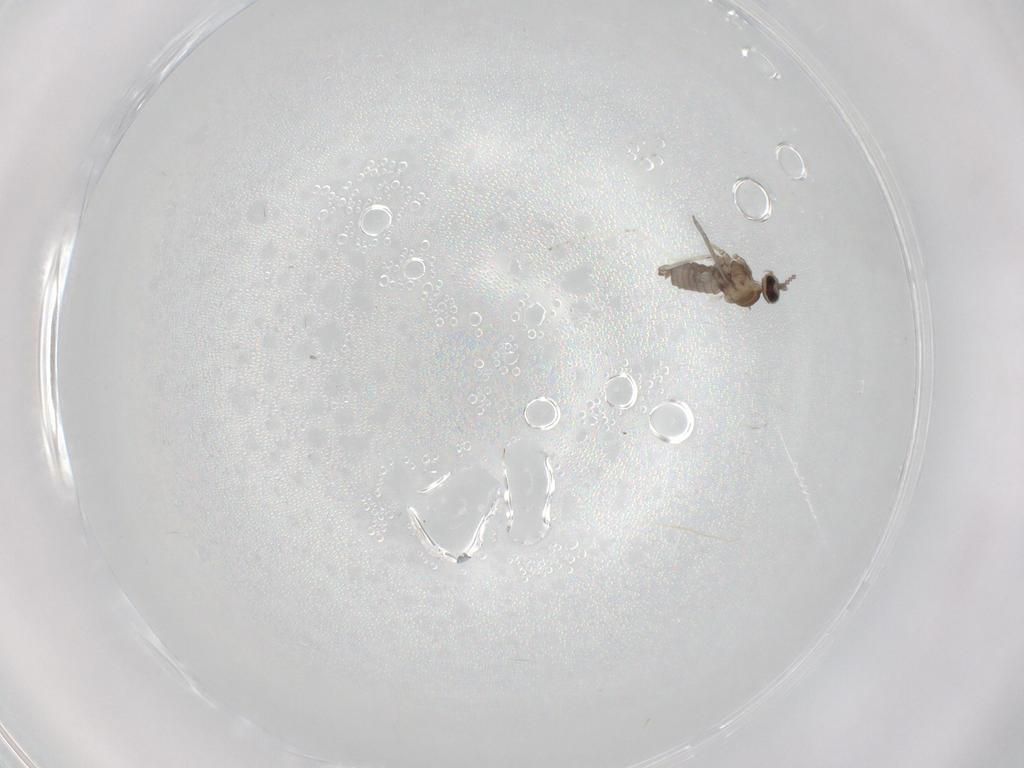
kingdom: Animalia
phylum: Arthropoda
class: Insecta
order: Diptera
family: Cecidomyiidae
